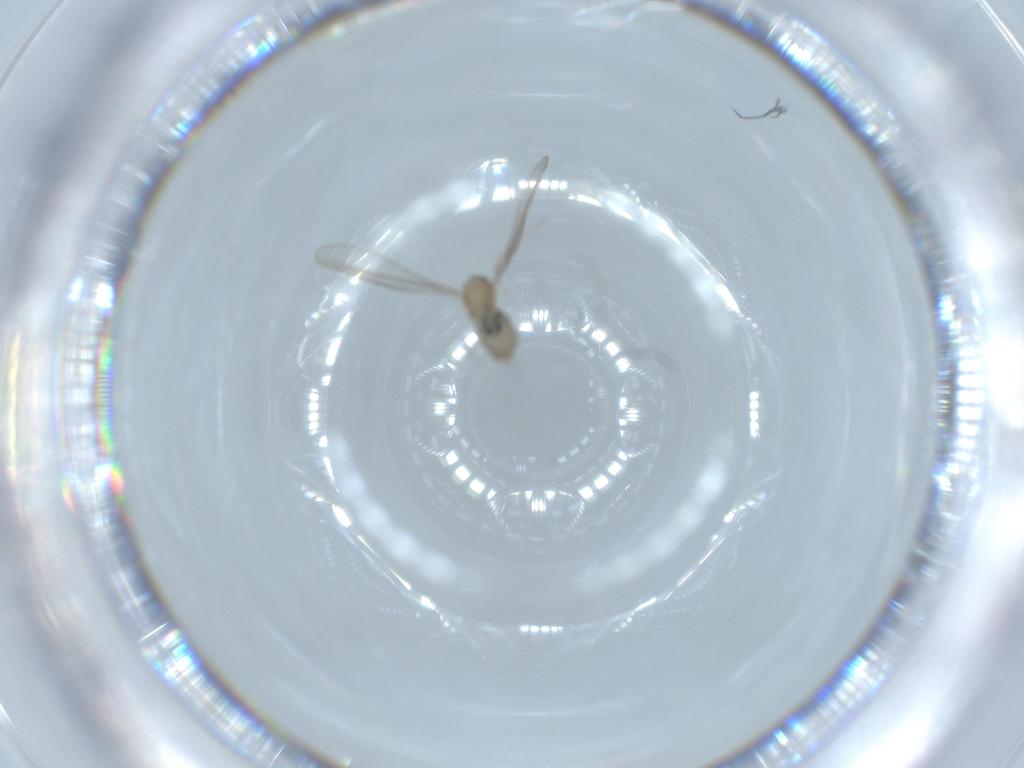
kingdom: Animalia
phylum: Arthropoda
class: Insecta
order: Diptera
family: Cecidomyiidae
